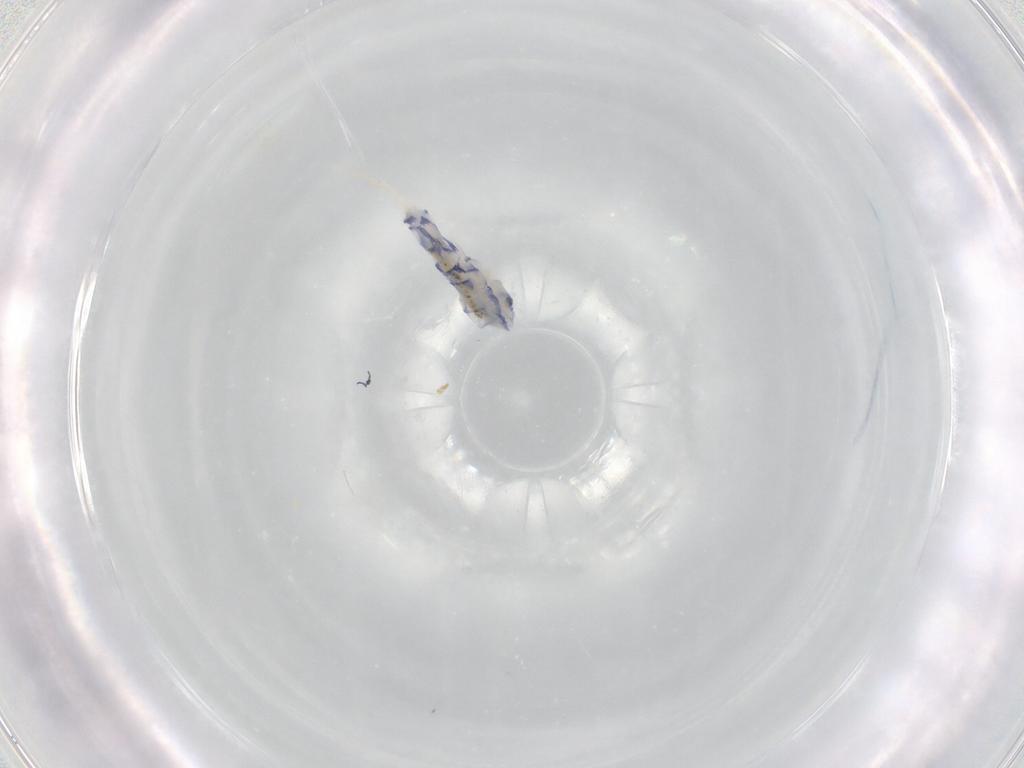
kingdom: Animalia
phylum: Arthropoda
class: Collembola
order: Entomobryomorpha
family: Entomobryidae
